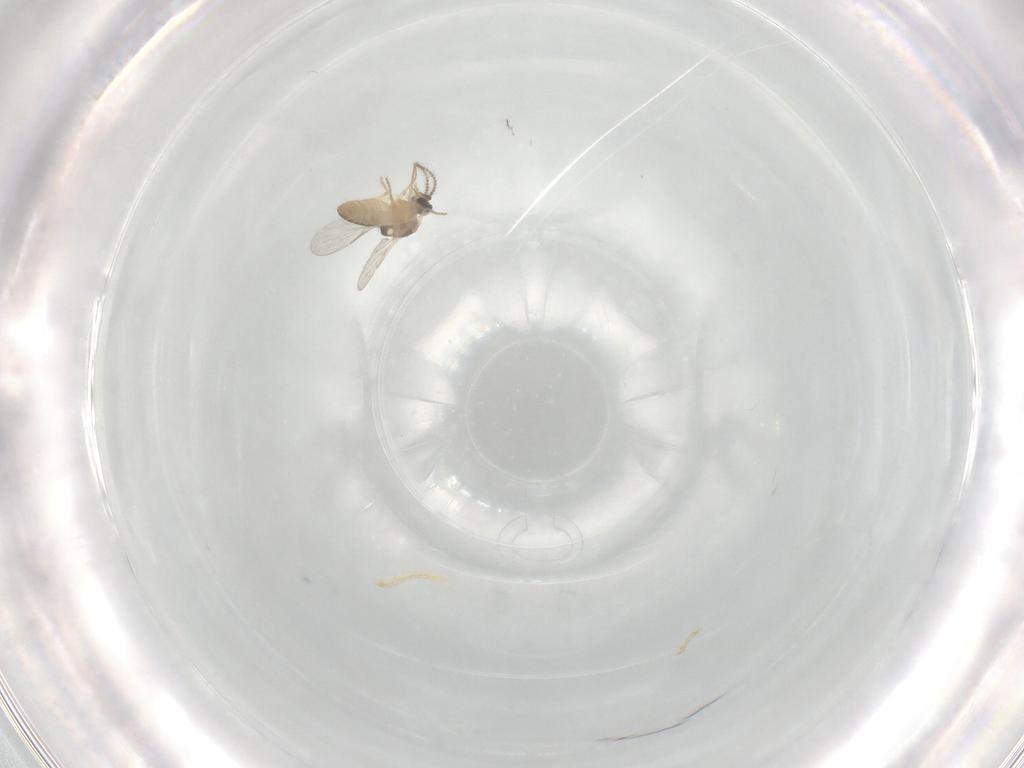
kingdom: Animalia
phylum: Arthropoda
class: Insecta
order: Diptera
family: Ceratopogonidae
